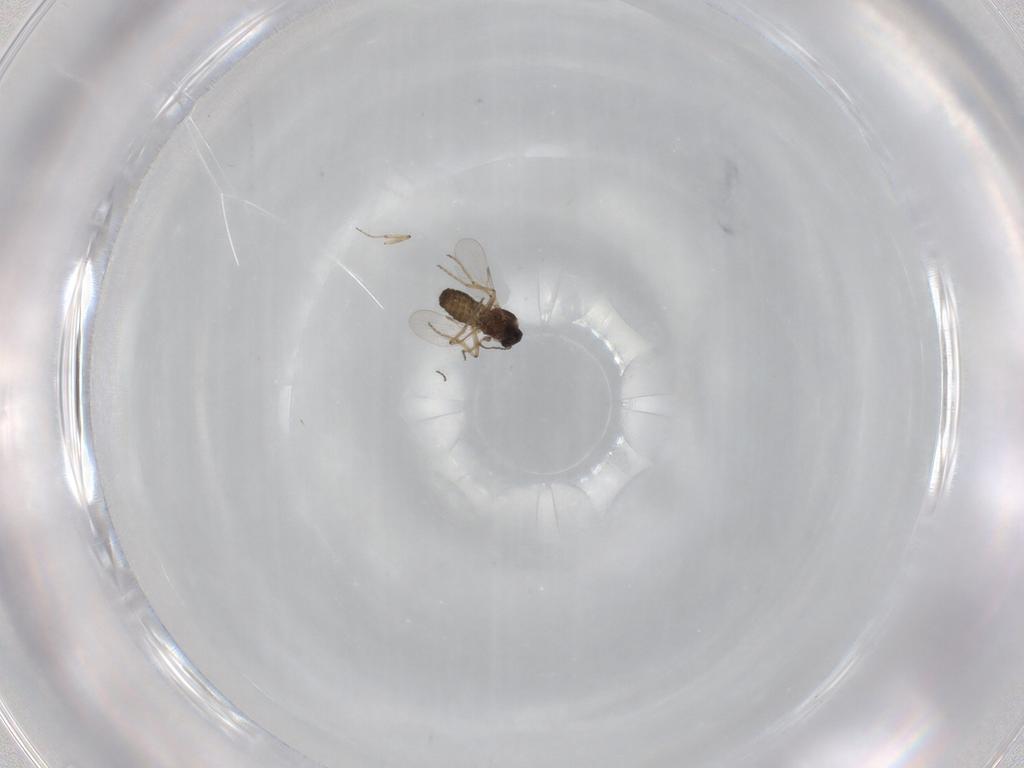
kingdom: Animalia
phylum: Arthropoda
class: Insecta
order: Diptera
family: Ceratopogonidae
